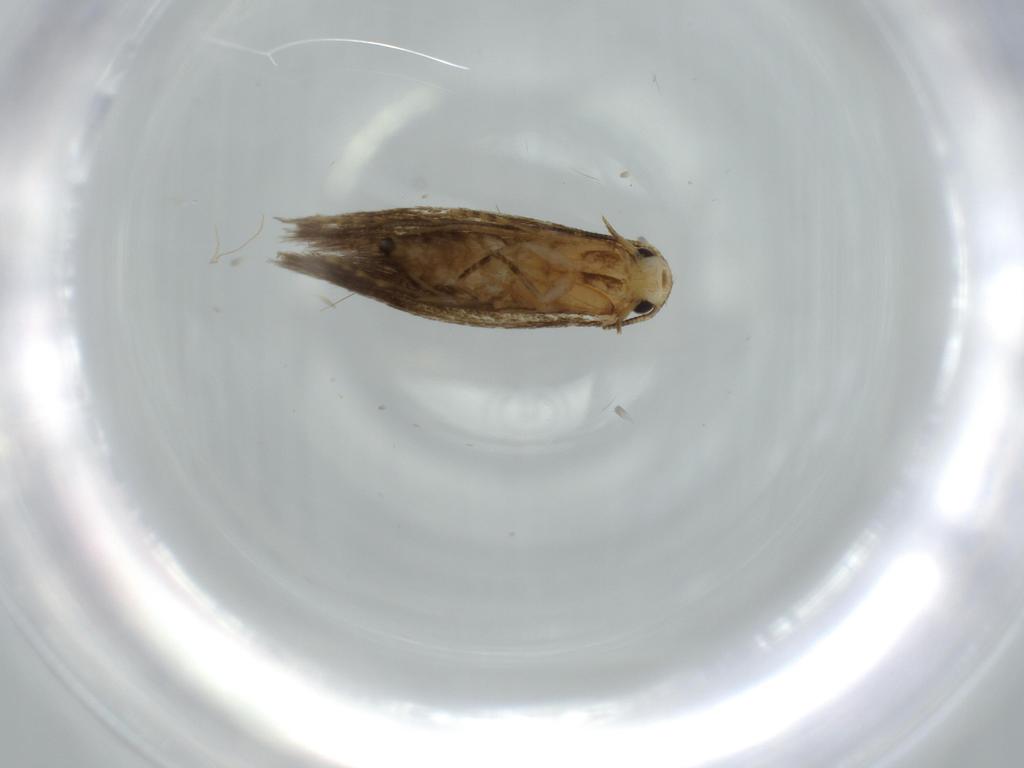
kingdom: Animalia
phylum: Arthropoda
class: Insecta
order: Lepidoptera
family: Tineidae
